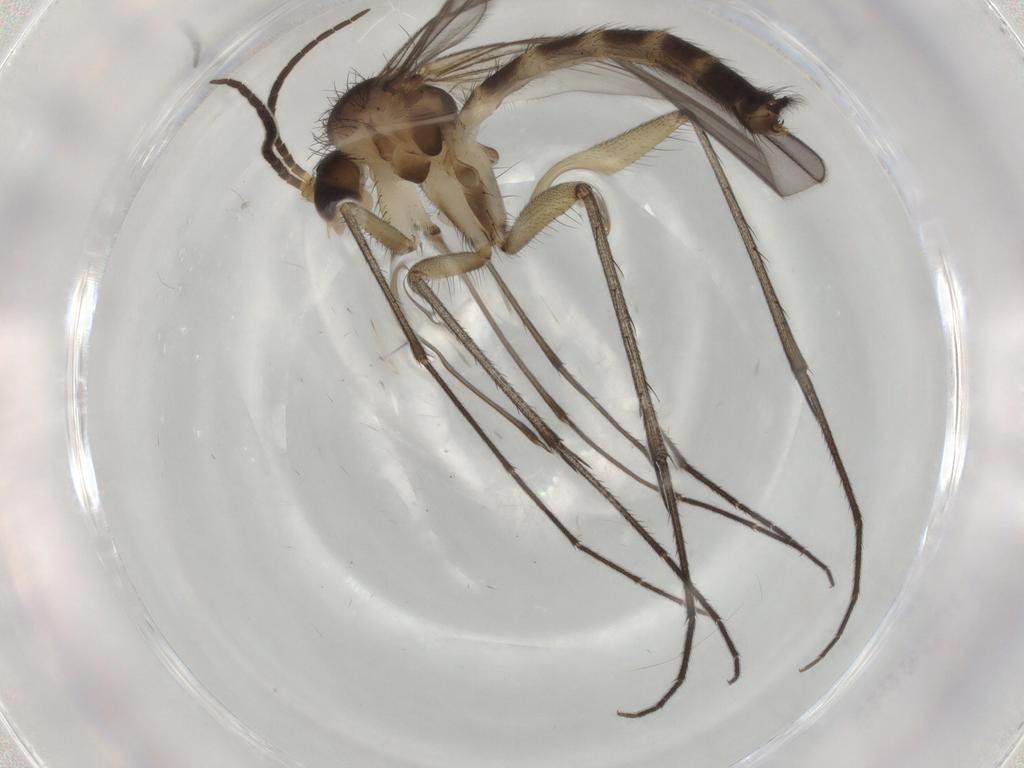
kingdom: Animalia
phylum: Arthropoda
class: Insecta
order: Diptera
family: Mycetophilidae
